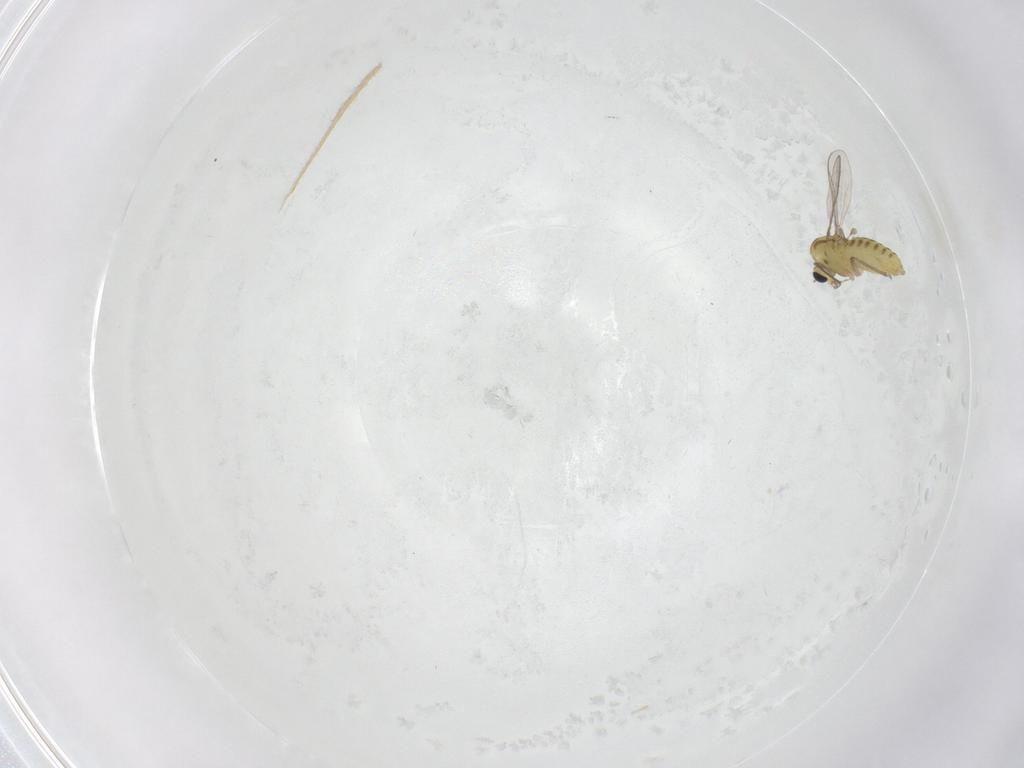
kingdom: Animalia
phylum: Arthropoda
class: Insecta
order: Diptera
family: Chironomidae
